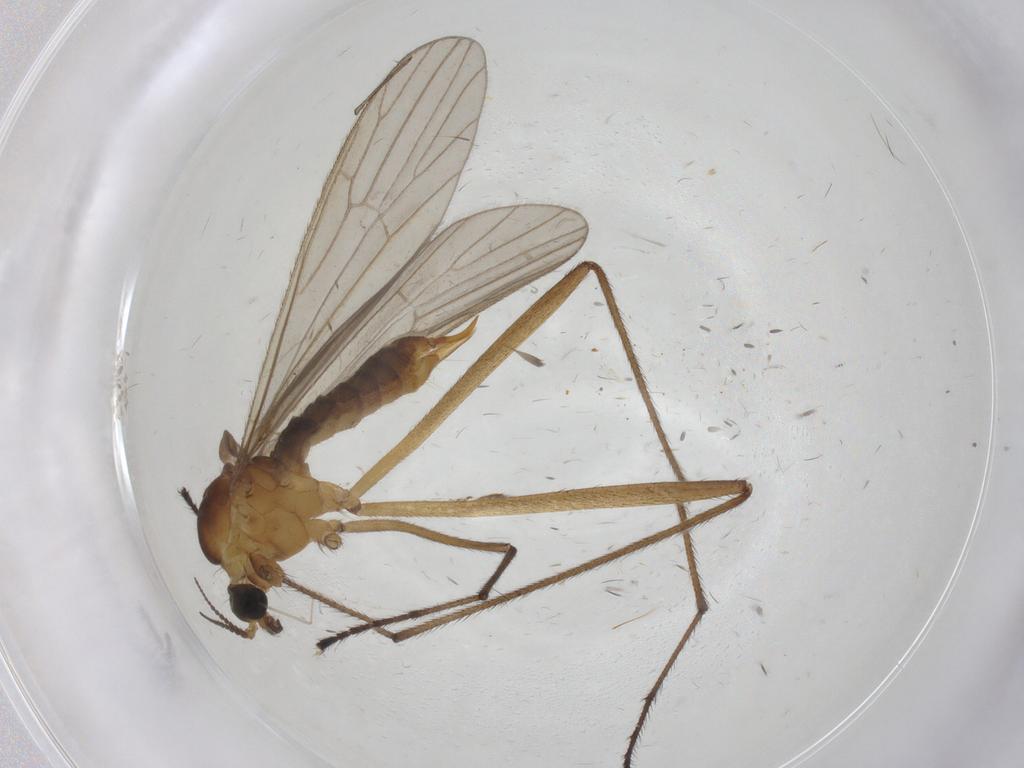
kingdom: Animalia
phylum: Arthropoda
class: Insecta
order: Diptera
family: Limoniidae
